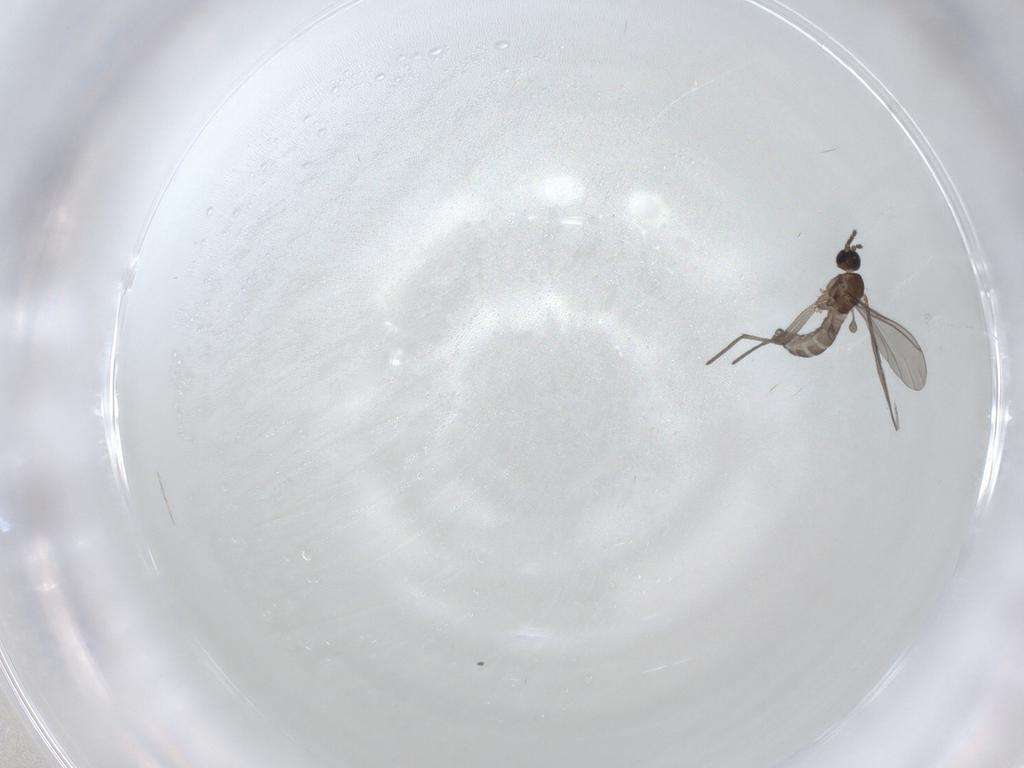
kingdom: Animalia
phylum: Arthropoda
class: Insecta
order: Diptera
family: Sciaridae
